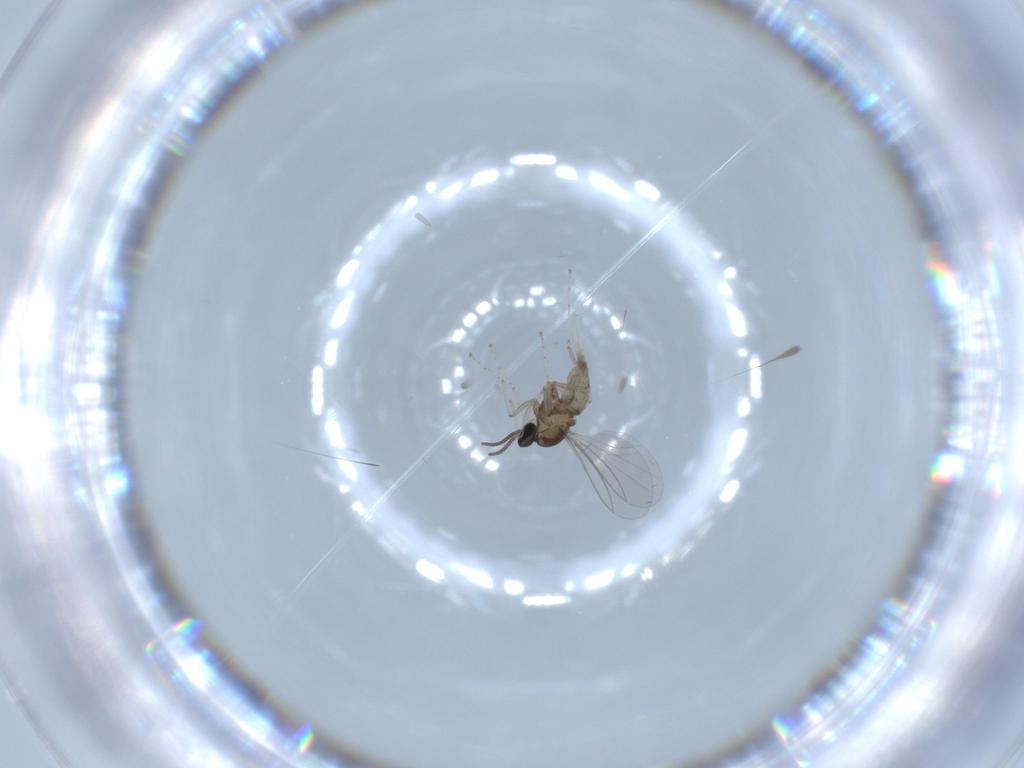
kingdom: Animalia
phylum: Arthropoda
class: Insecta
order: Diptera
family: Cecidomyiidae
